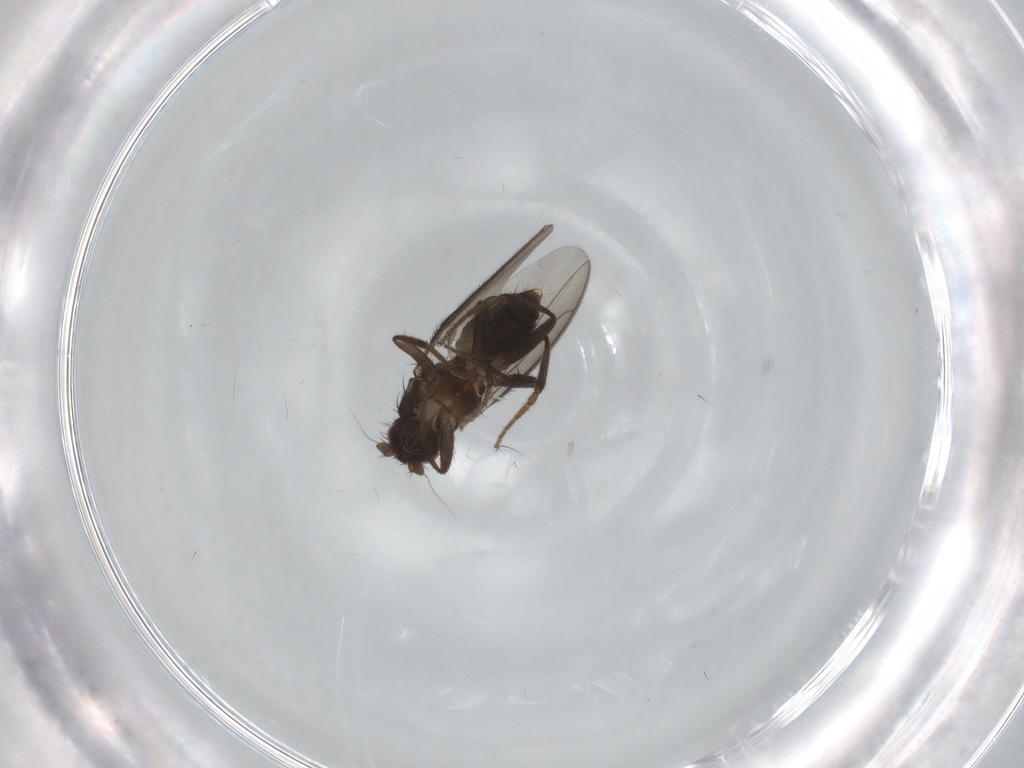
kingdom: Animalia
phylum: Arthropoda
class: Insecta
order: Diptera
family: Sphaeroceridae
